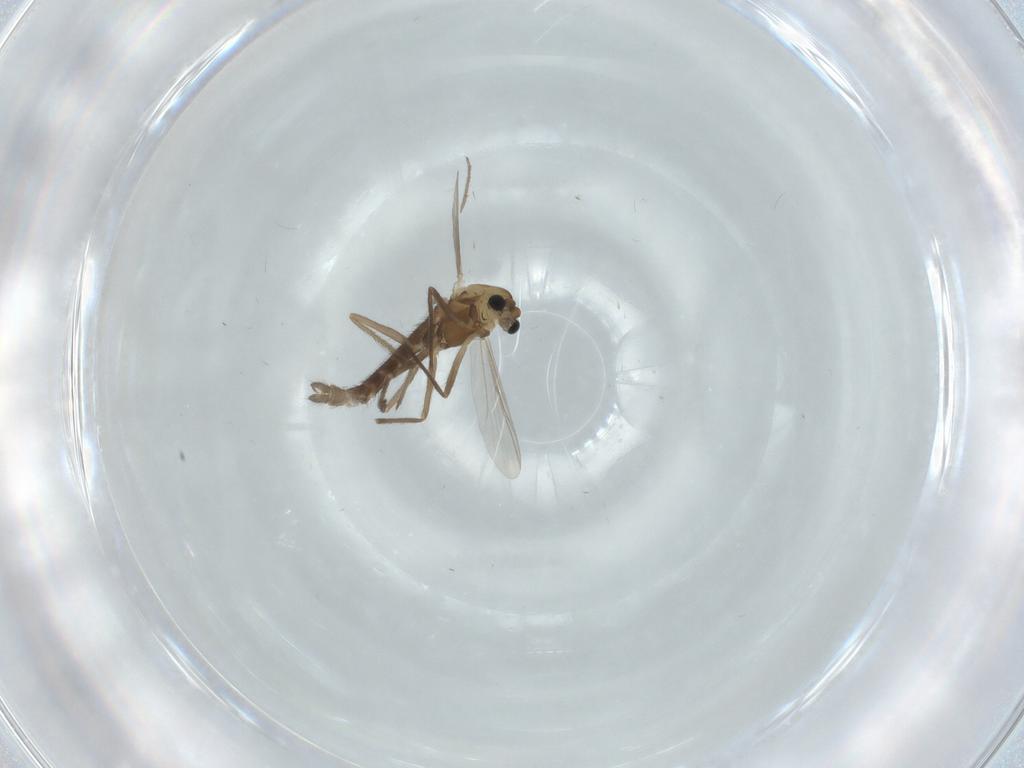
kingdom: Animalia
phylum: Arthropoda
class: Insecta
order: Diptera
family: Chironomidae
